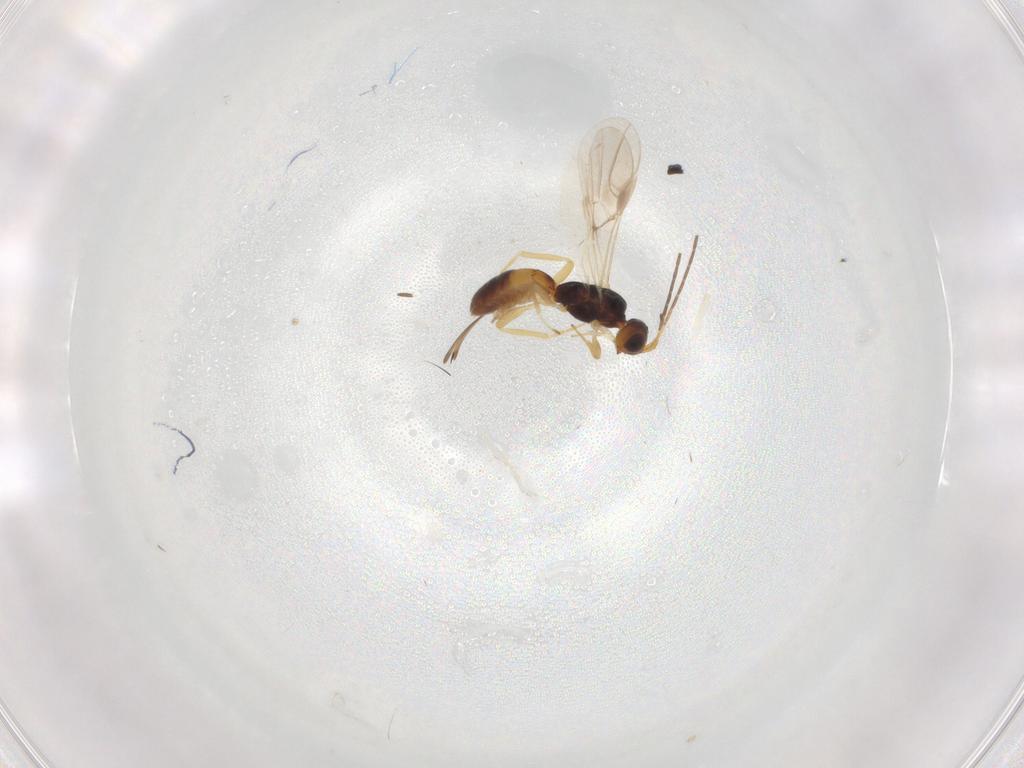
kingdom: Animalia
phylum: Arthropoda
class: Insecta
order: Hymenoptera
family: Braconidae
